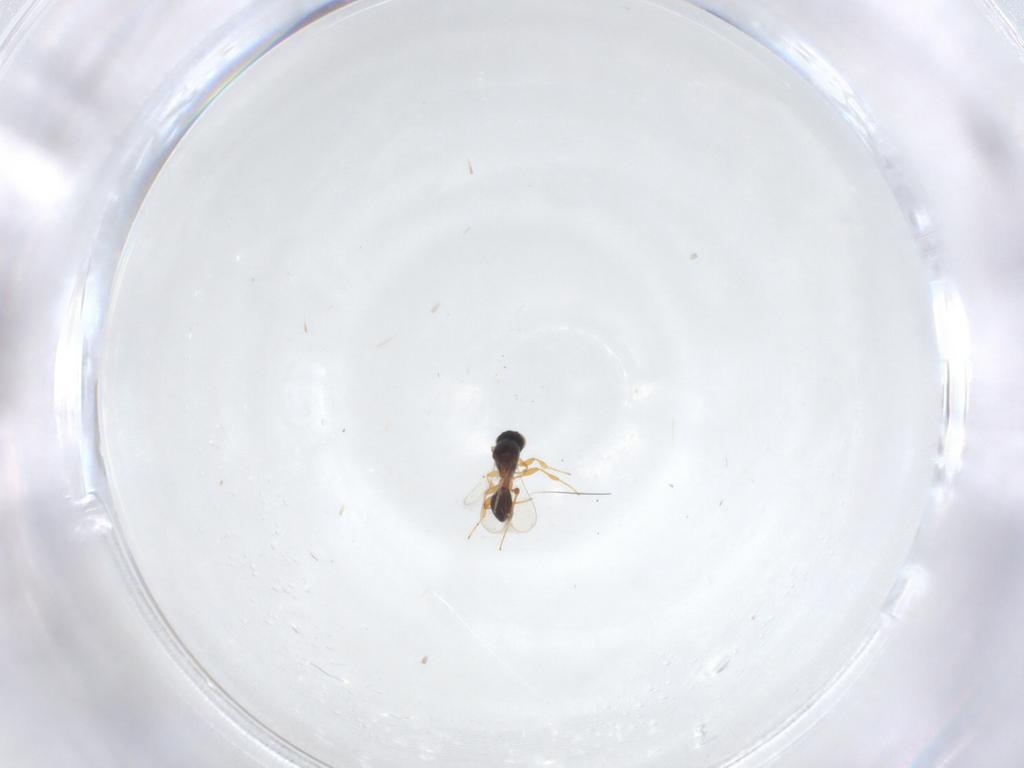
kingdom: Animalia
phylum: Arthropoda
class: Insecta
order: Hymenoptera
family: Platygastridae
